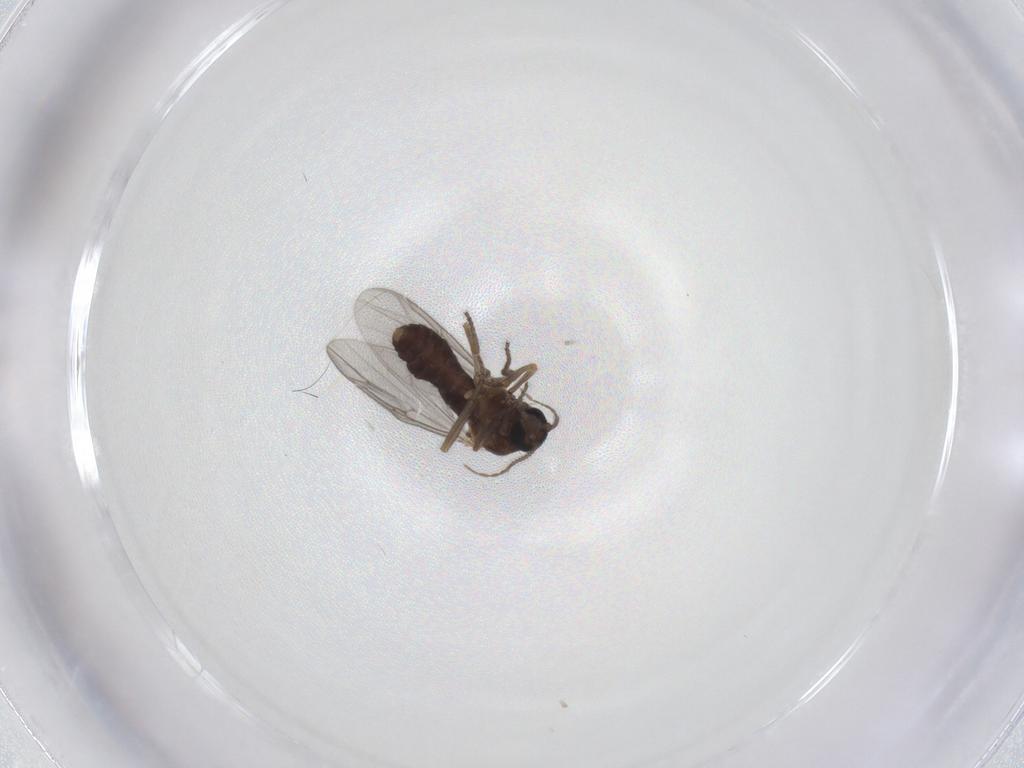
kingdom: Animalia
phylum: Arthropoda
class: Insecta
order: Diptera
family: Ceratopogonidae
